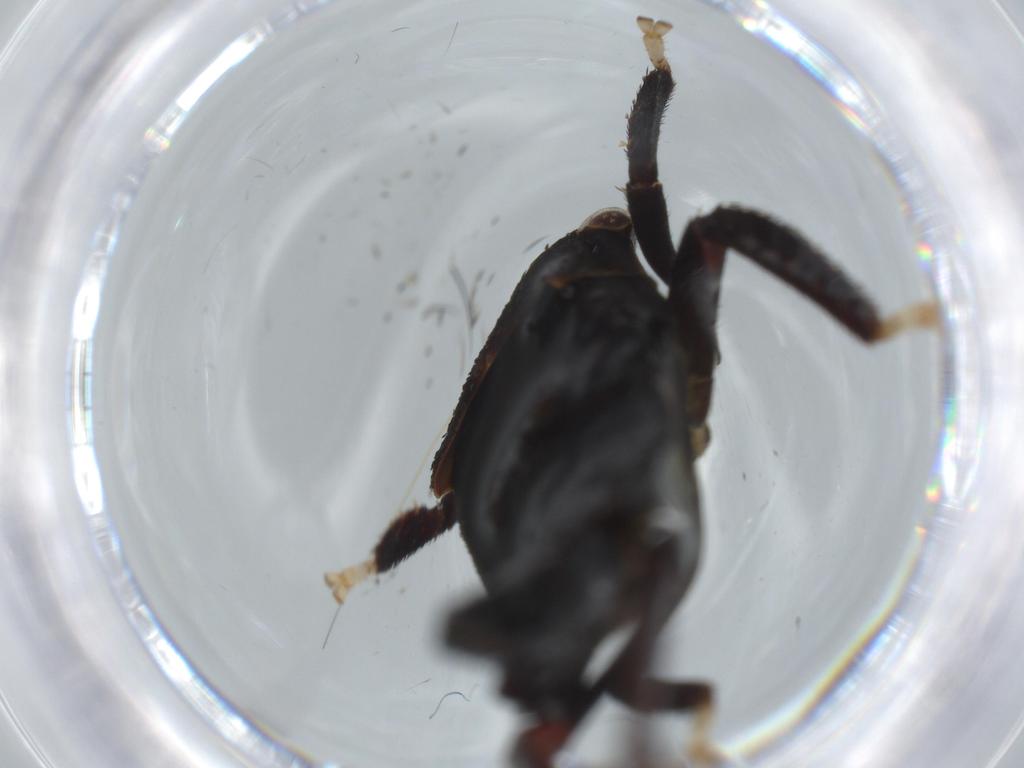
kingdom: Animalia
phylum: Arthropoda
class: Insecta
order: Hemiptera
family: Cicadellidae
